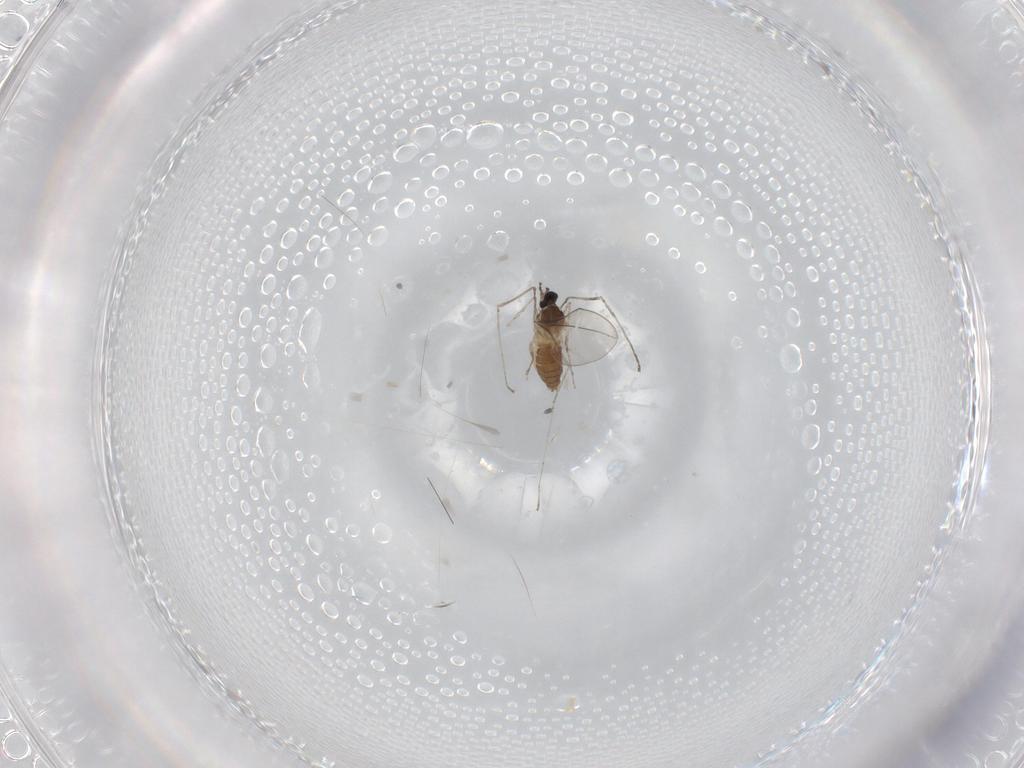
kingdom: Animalia
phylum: Arthropoda
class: Insecta
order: Diptera
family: Cecidomyiidae
